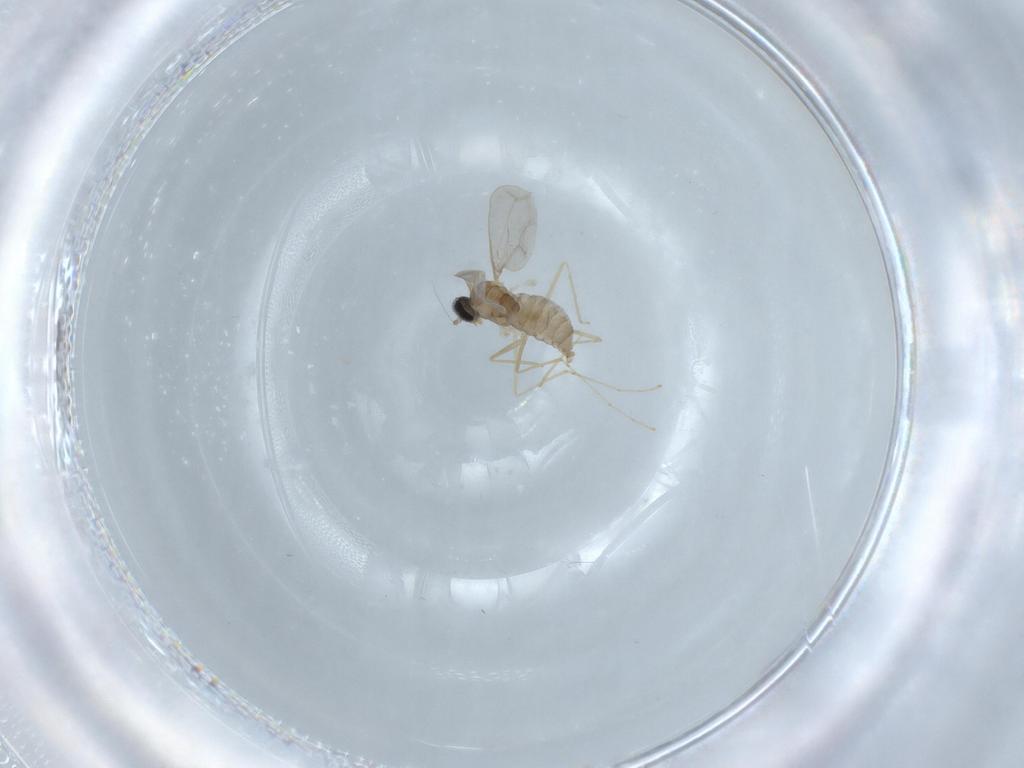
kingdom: Animalia
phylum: Arthropoda
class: Insecta
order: Diptera
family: Cecidomyiidae
